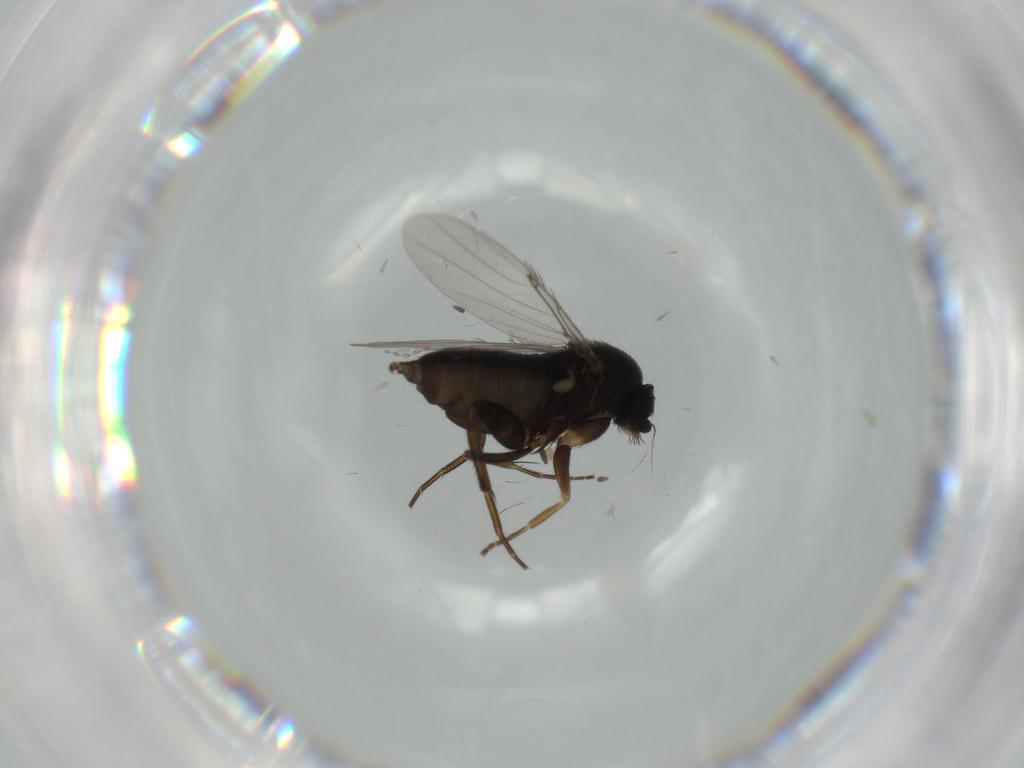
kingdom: Animalia
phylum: Arthropoda
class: Insecta
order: Diptera
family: Phoridae
